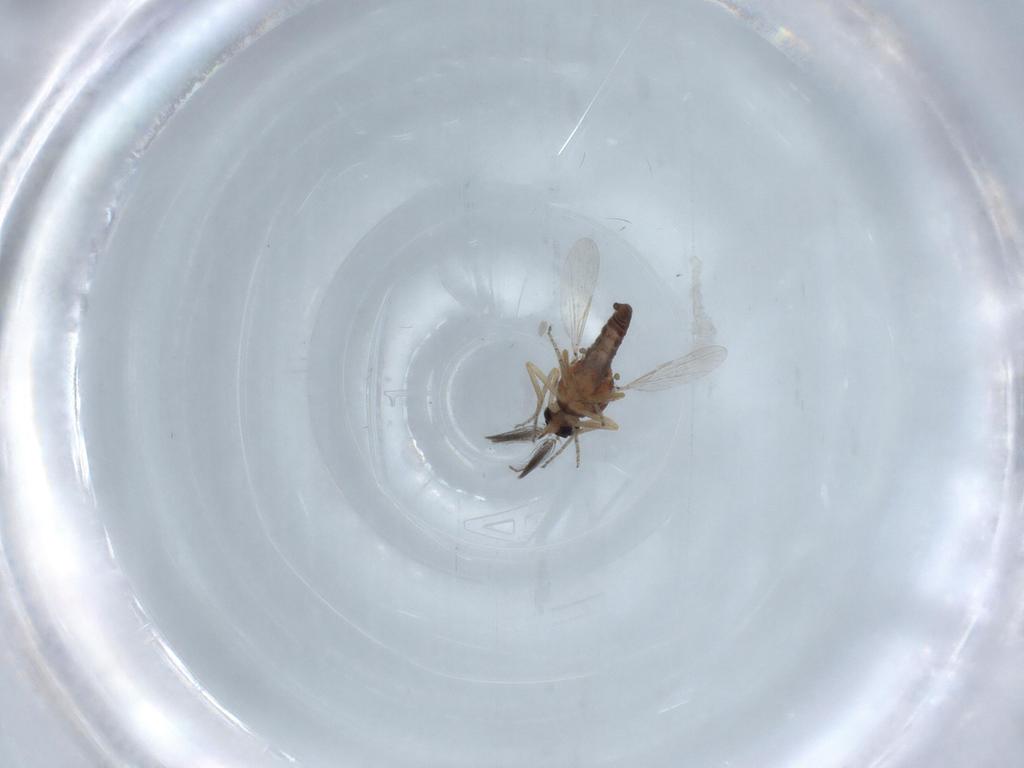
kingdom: Animalia
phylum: Arthropoda
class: Insecta
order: Diptera
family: Ceratopogonidae
